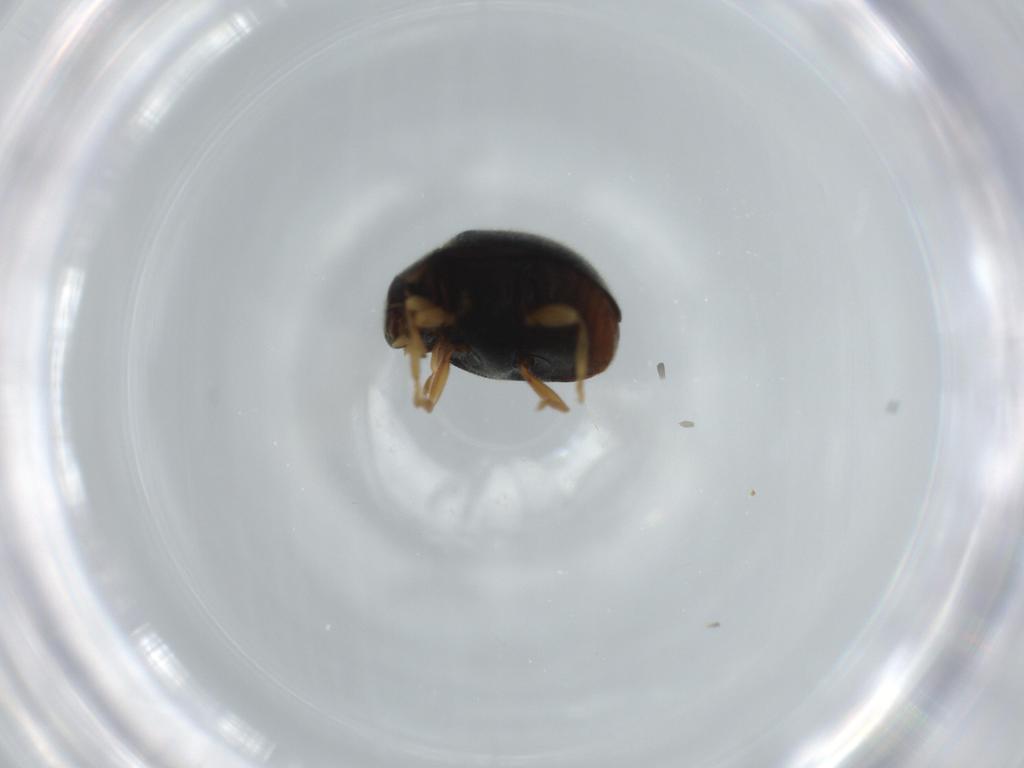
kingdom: Animalia
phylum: Arthropoda
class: Insecta
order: Coleoptera
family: Coccinellidae
